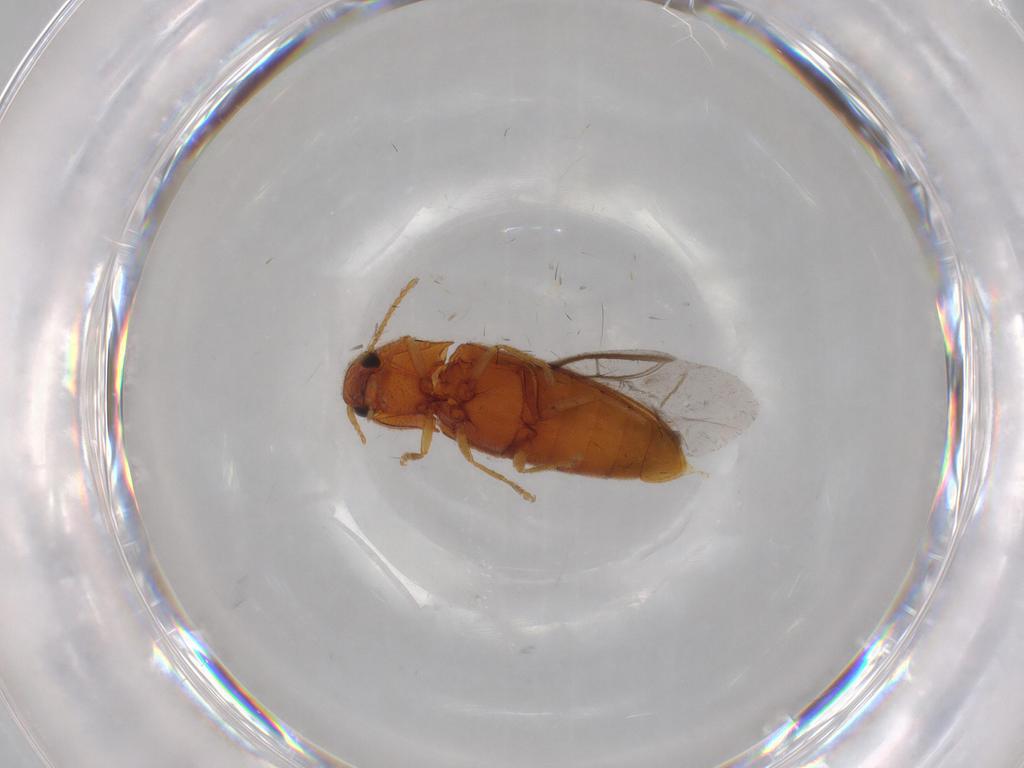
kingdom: Animalia
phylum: Arthropoda
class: Insecta
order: Coleoptera
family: Elateridae
